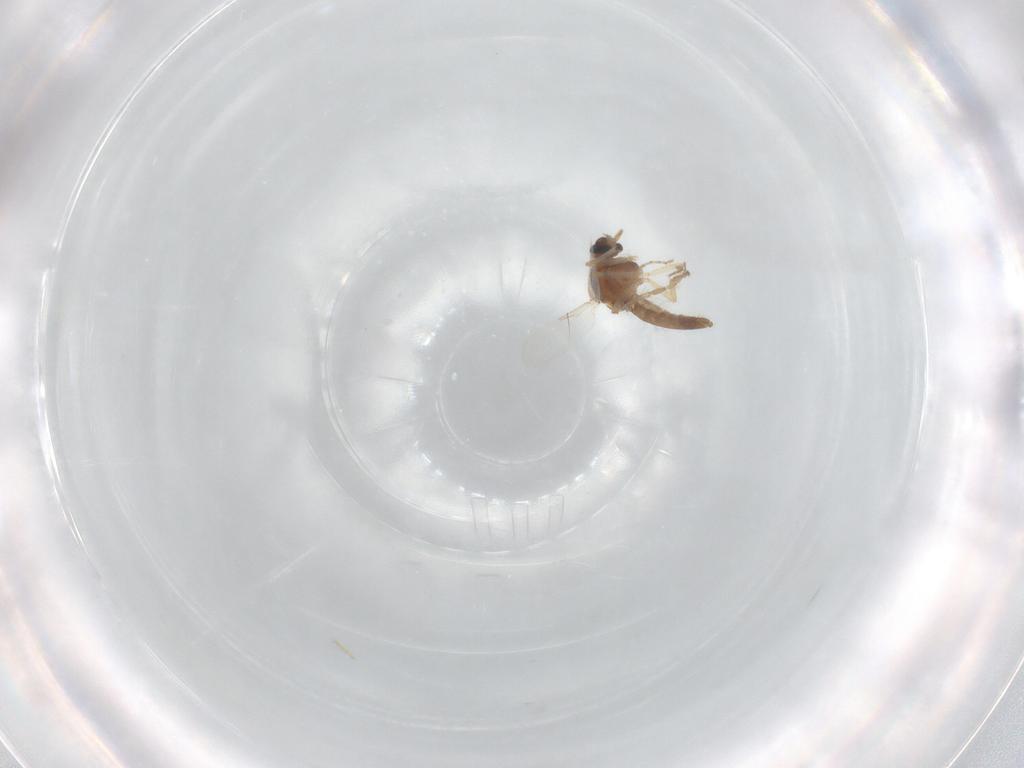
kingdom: Animalia
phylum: Arthropoda
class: Insecta
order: Diptera
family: Ceratopogonidae
